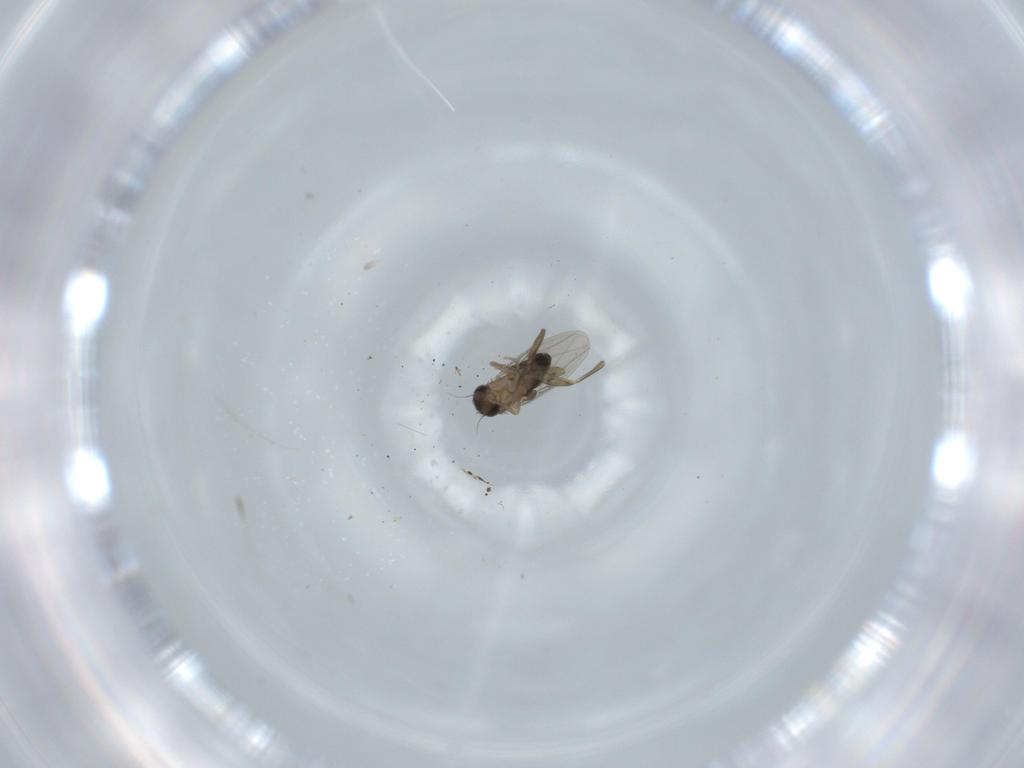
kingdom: Animalia
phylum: Arthropoda
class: Insecta
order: Diptera
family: Phoridae
